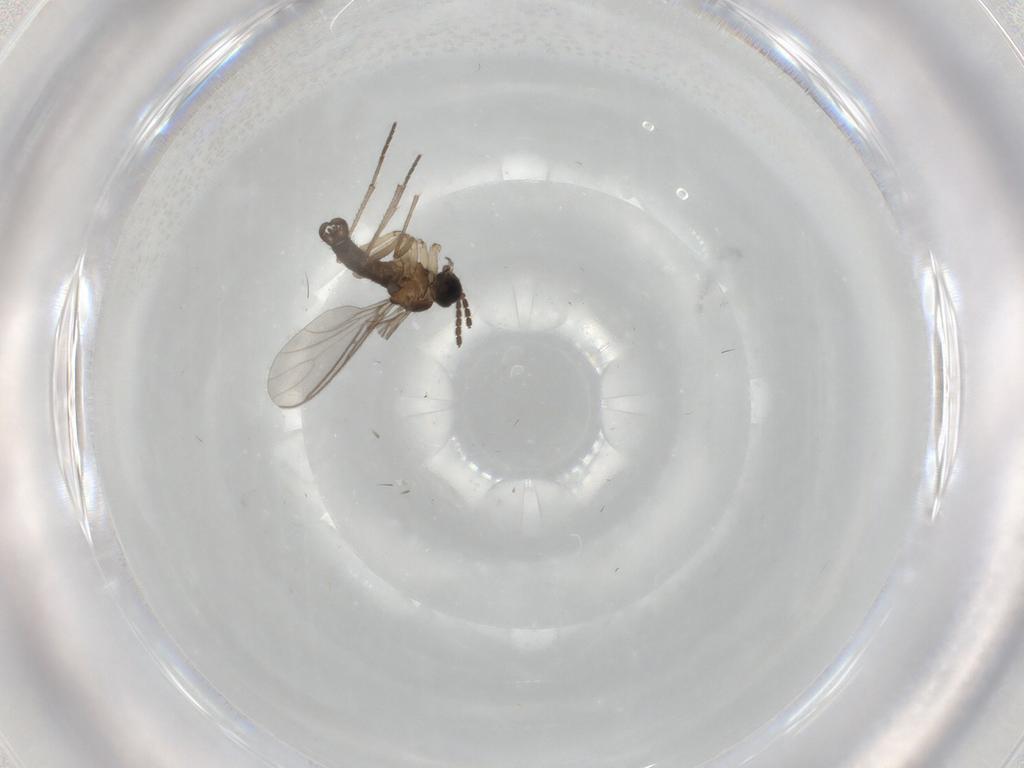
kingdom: Animalia
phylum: Arthropoda
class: Insecta
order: Diptera
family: Sciaridae
